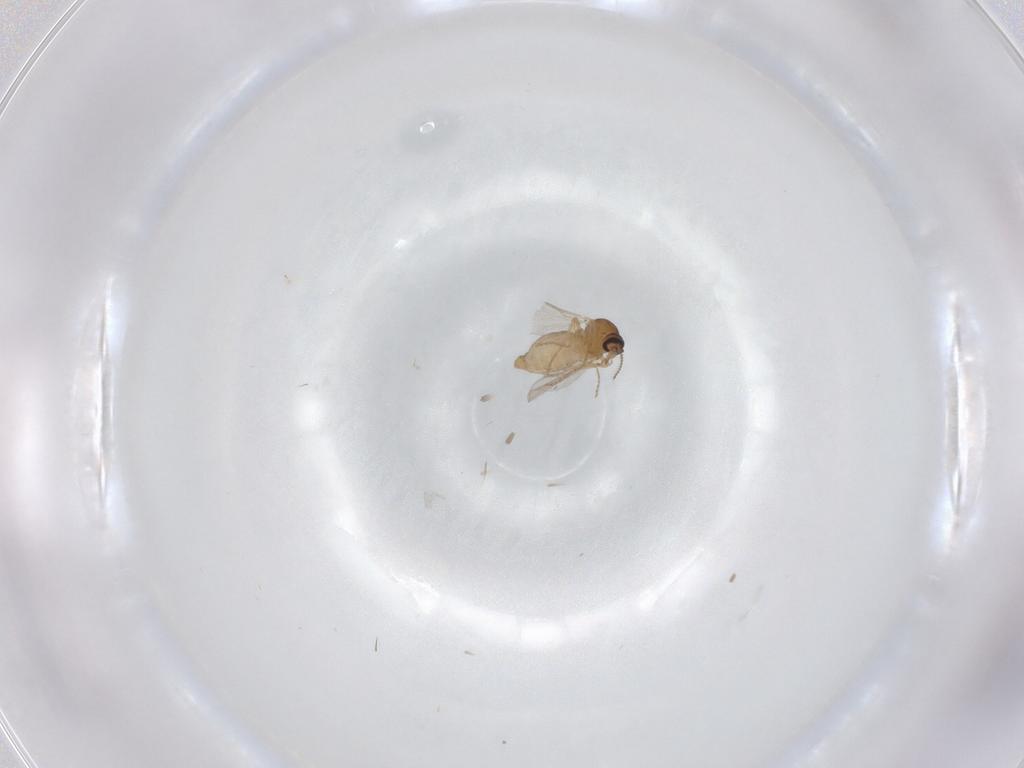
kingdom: Animalia
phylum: Arthropoda
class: Insecta
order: Diptera
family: Ceratopogonidae
